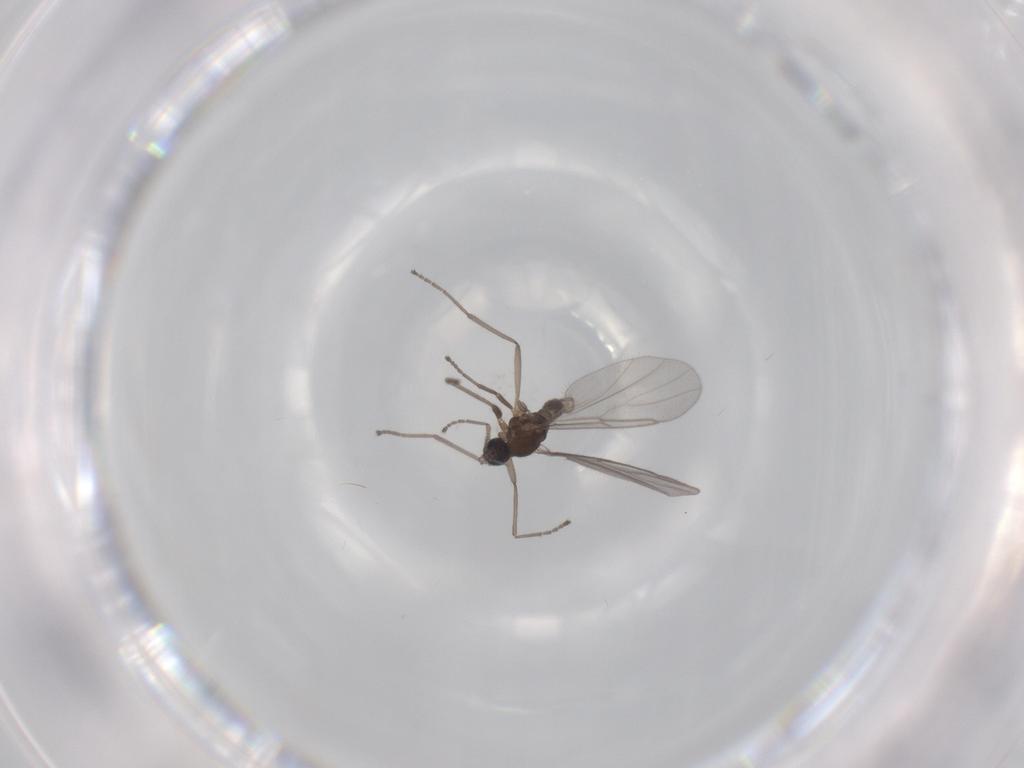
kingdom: Animalia
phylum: Arthropoda
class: Insecta
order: Diptera
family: Cecidomyiidae
